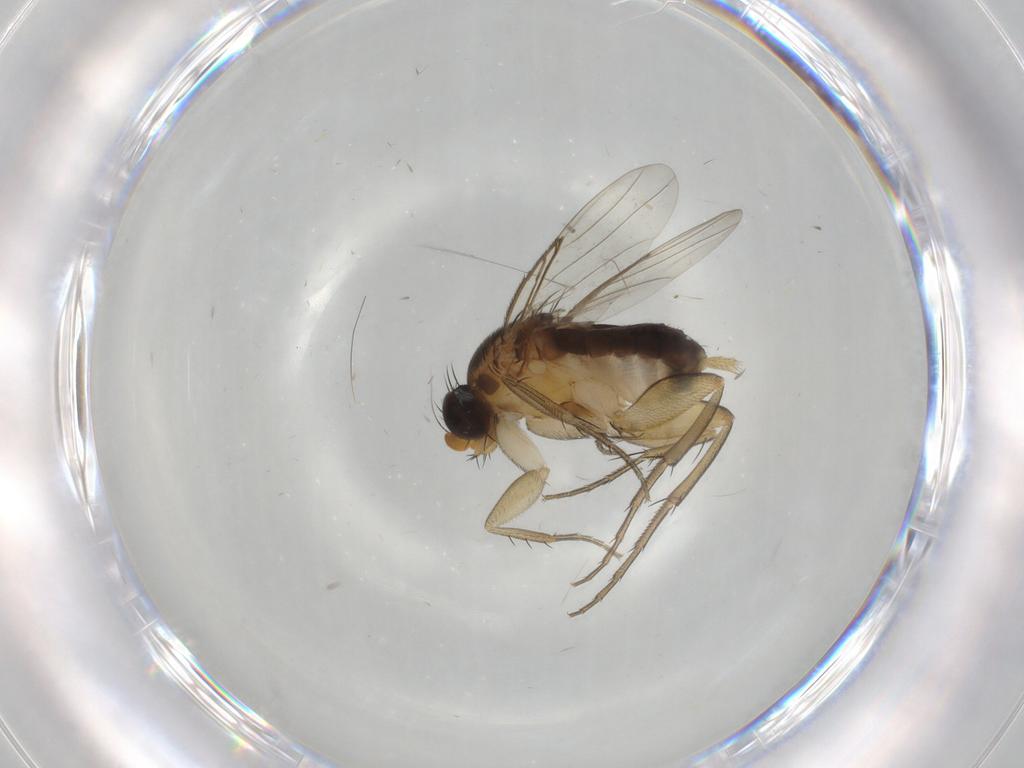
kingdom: Animalia
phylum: Arthropoda
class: Insecta
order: Diptera
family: Phoridae
